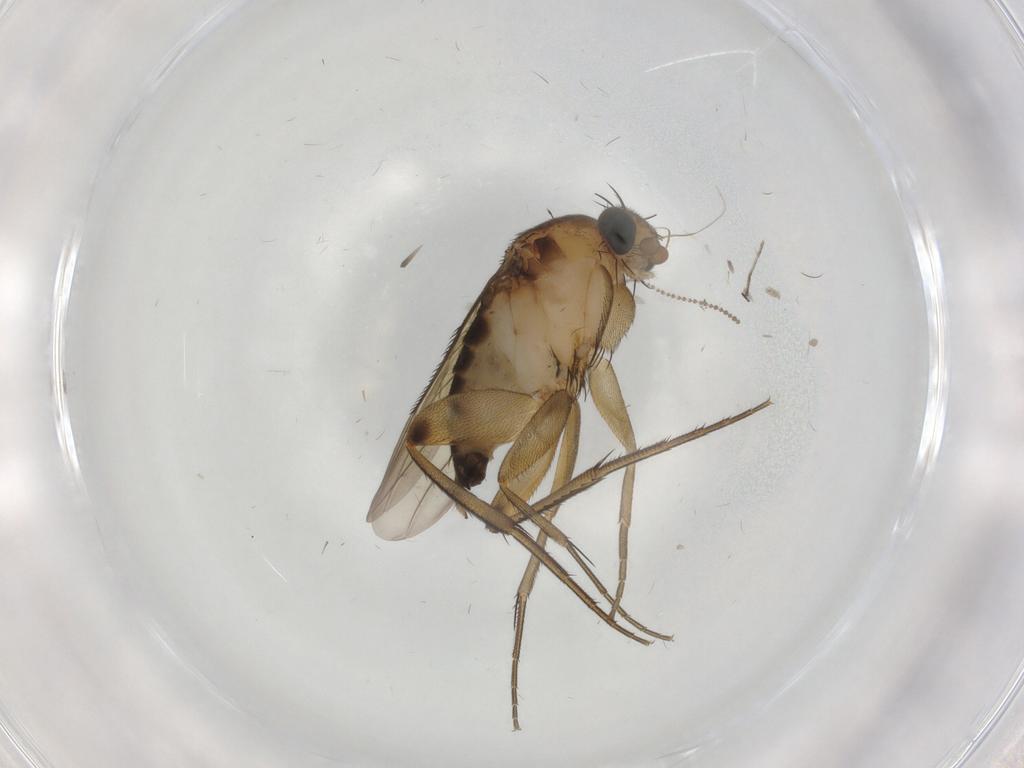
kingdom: Animalia
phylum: Arthropoda
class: Insecta
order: Diptera
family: Phoridae
